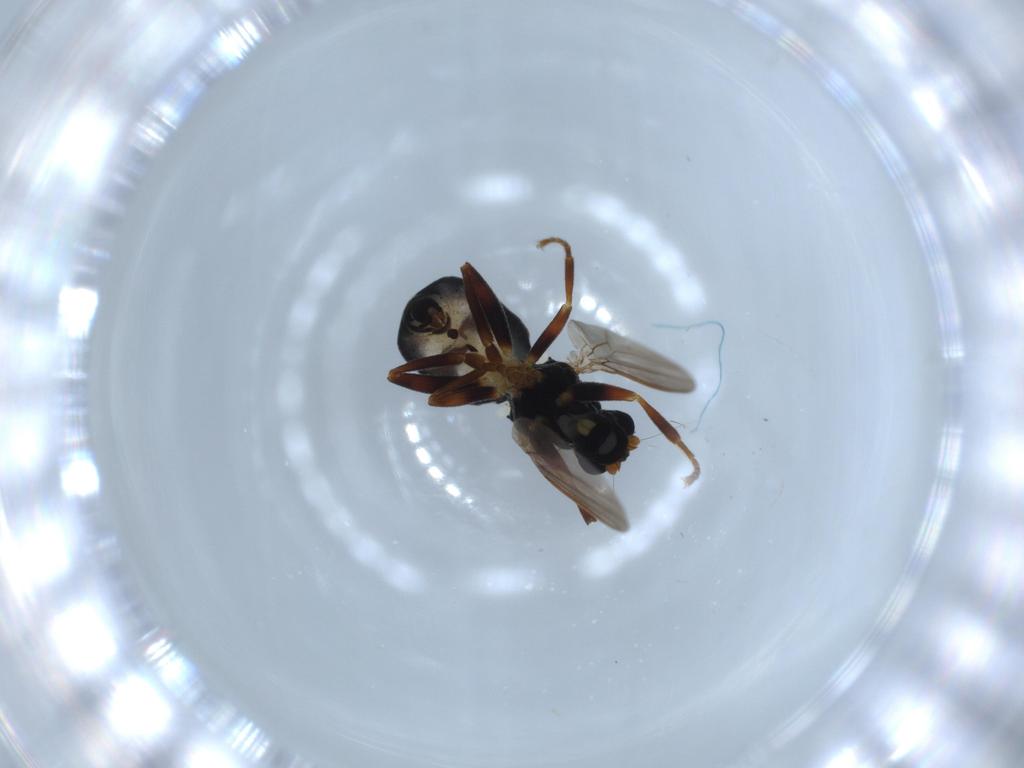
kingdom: Animalia
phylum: Arthropoda
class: Insecta
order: Diptera
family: Sphaeroceridae
